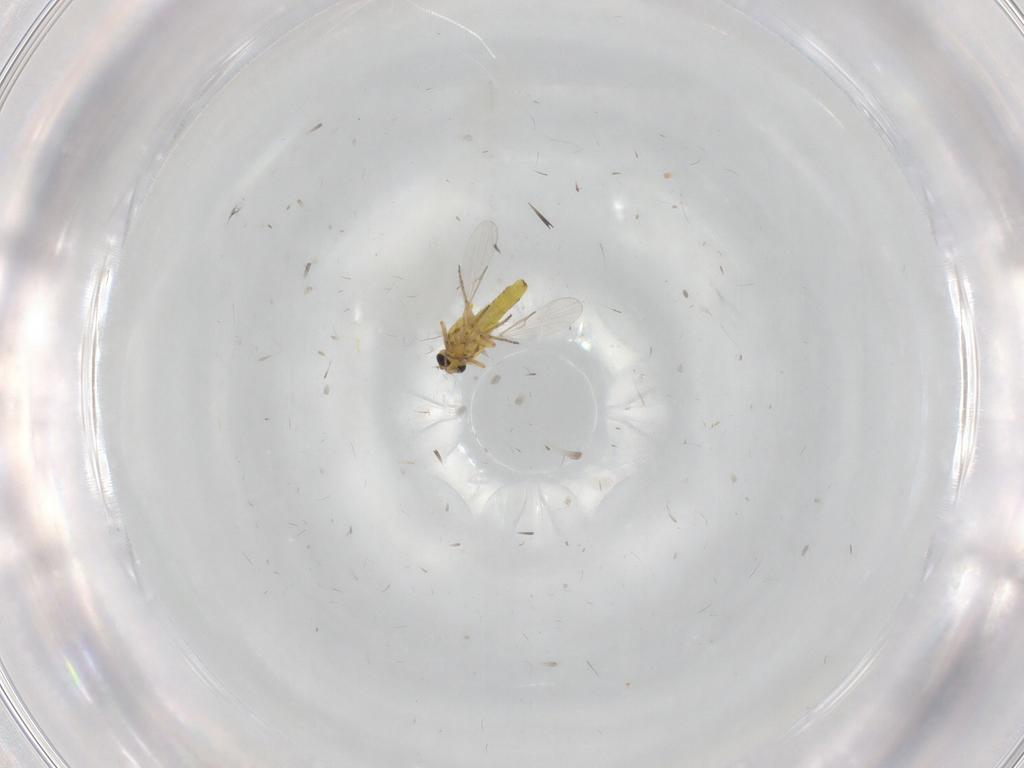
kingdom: Animalia
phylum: Arthropoda
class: Insecta
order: Diptera
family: Ceratopogonidae
